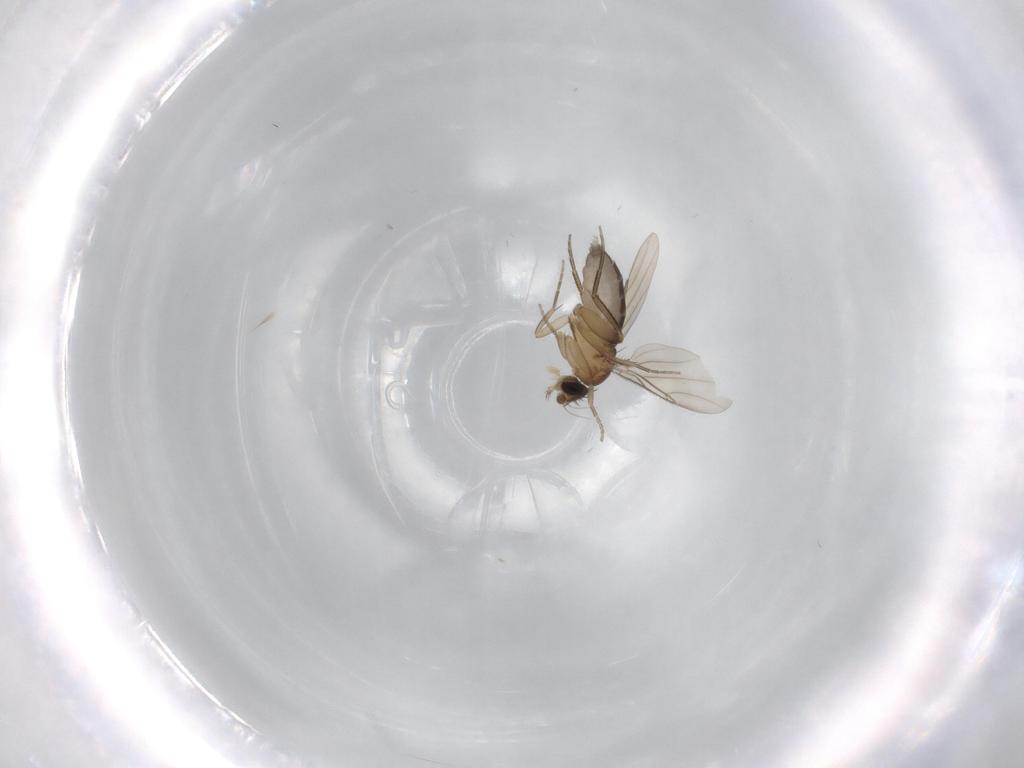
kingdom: Animalia
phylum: Arthropoda
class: Insecta
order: Diptera
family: Phoridae
